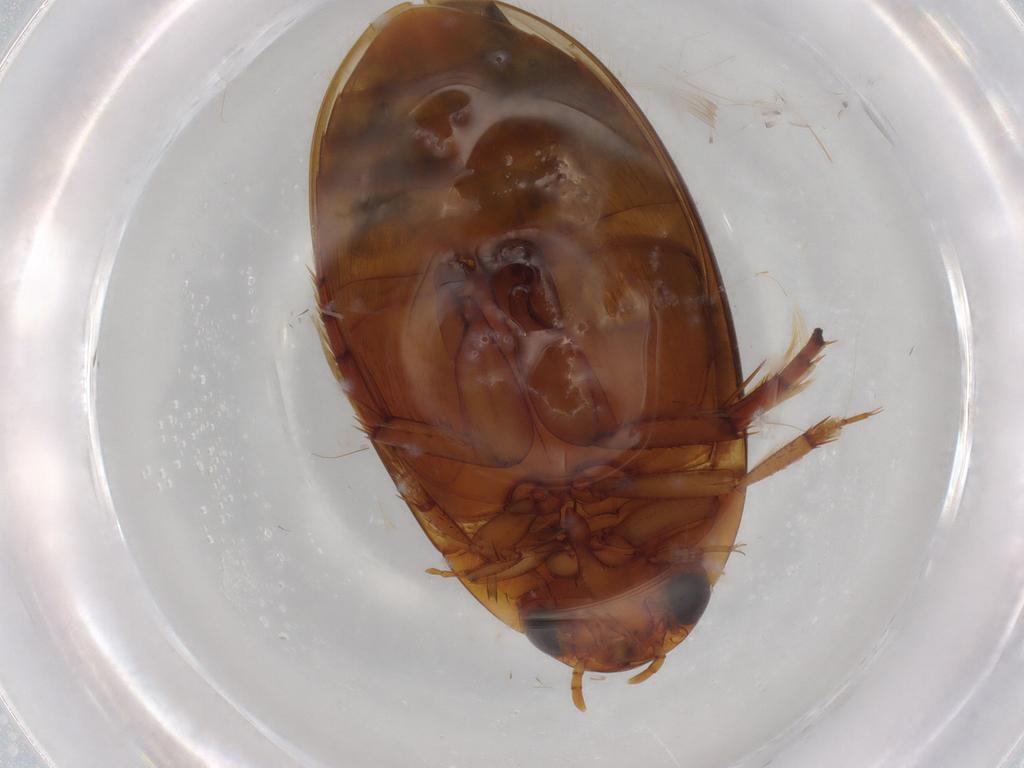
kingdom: Animalia
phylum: Arthropoda
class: Insecta
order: Coleoptera
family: Dytiscidae
